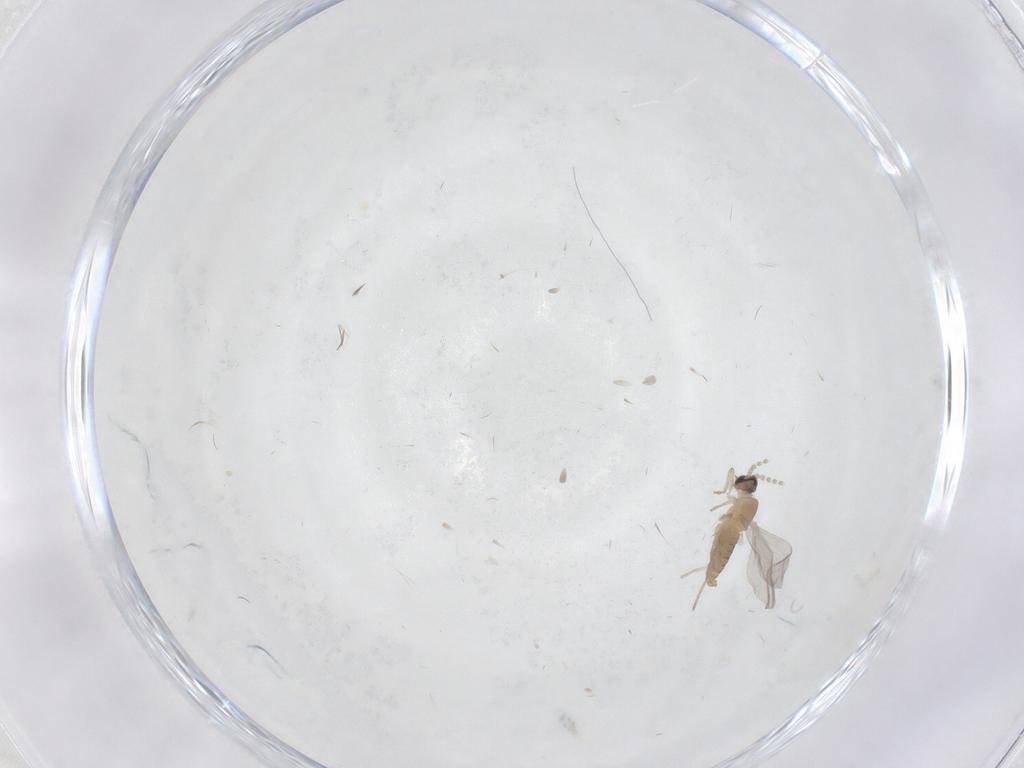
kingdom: Animalia
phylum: Arthropoda
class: Insecta
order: Diptera
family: Cecidomyiidae
